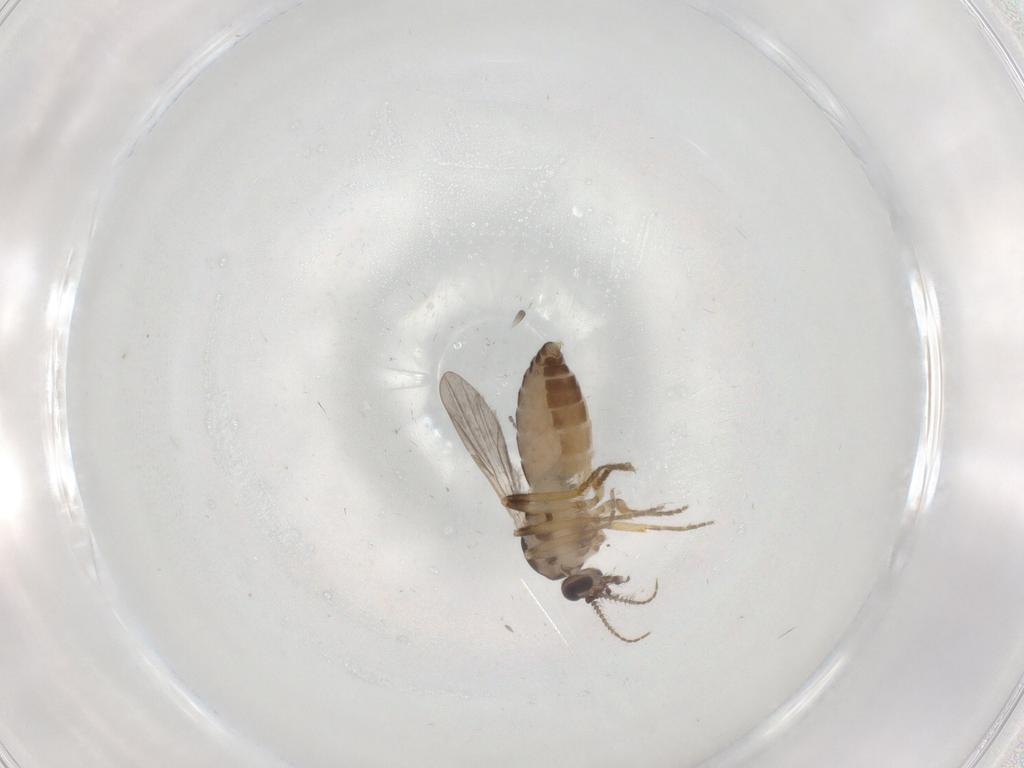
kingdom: Animalia
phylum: Arthropoda
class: Insecta
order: Diptera
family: Ceratopogonidae
